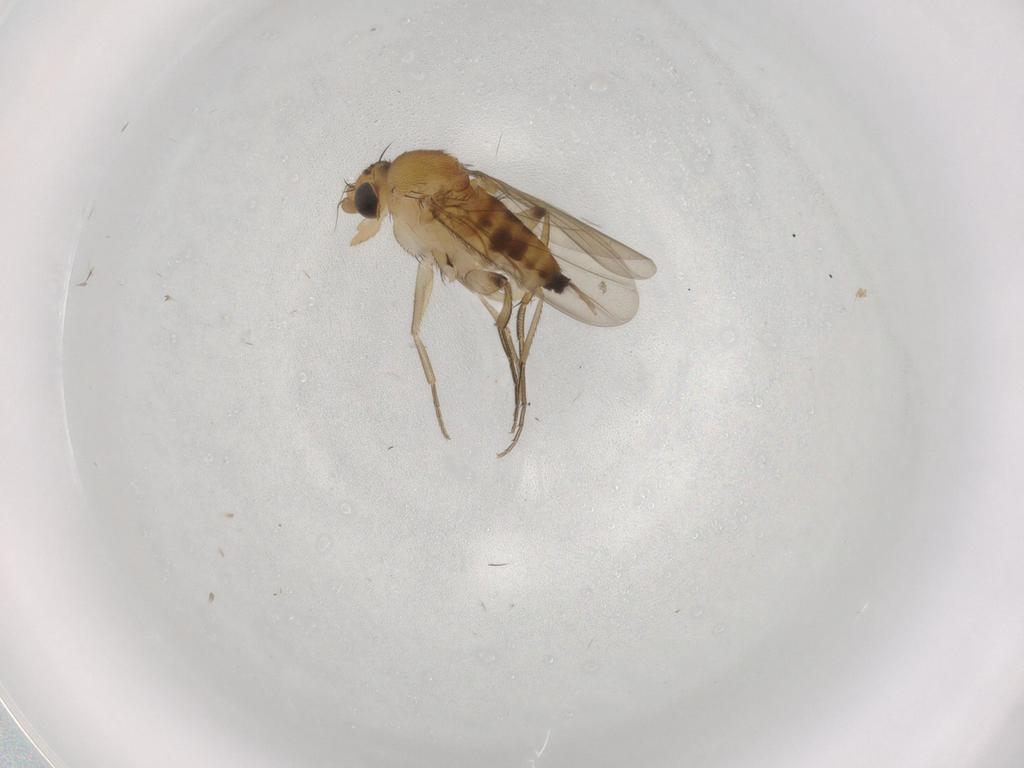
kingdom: Animalia
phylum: Arthropoda
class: Insecta
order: Diptera
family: Phoridae
